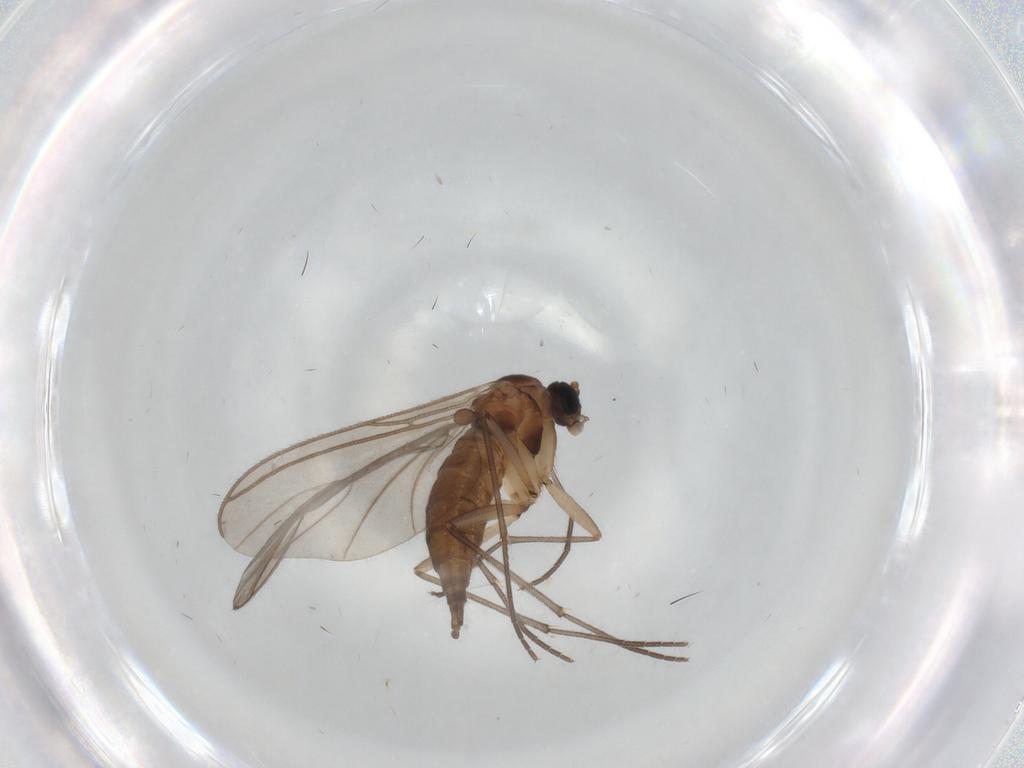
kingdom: Animalia
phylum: Arthropoda
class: Insecta
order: Diptera
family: Sciaridae
